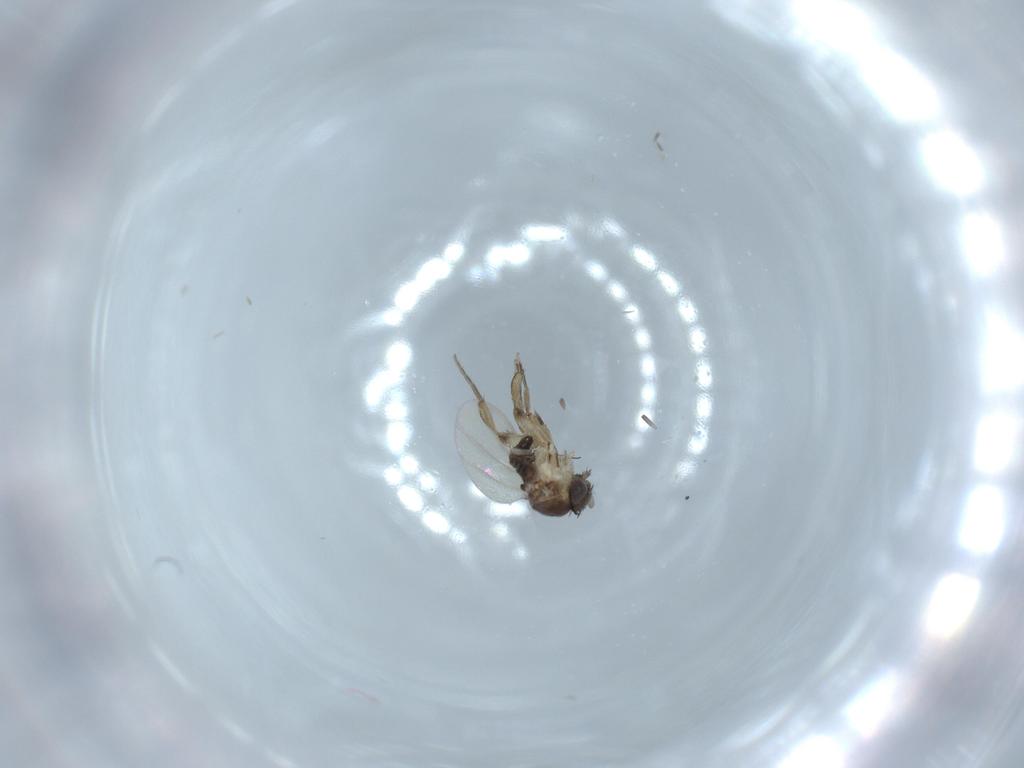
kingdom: Animalia
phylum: Arthropoda
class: Insecta
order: Diptera
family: Phoridae
